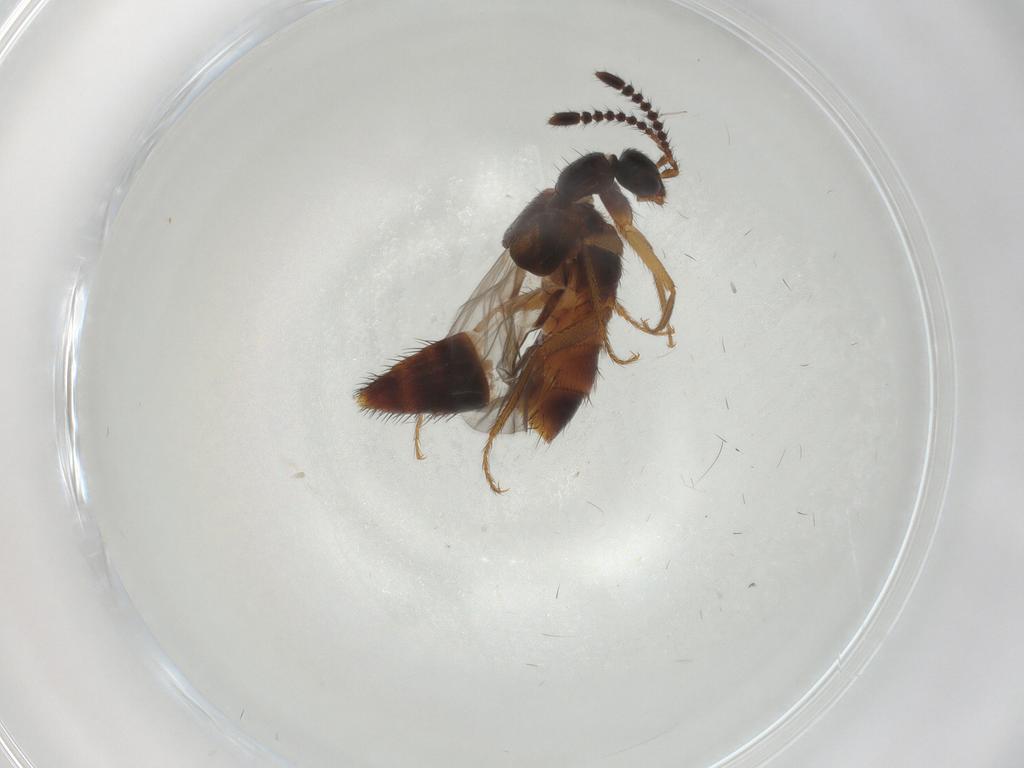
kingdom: Animalia
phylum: Arthropoda
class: Insecta
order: Coleoptera
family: Staphylinidae
